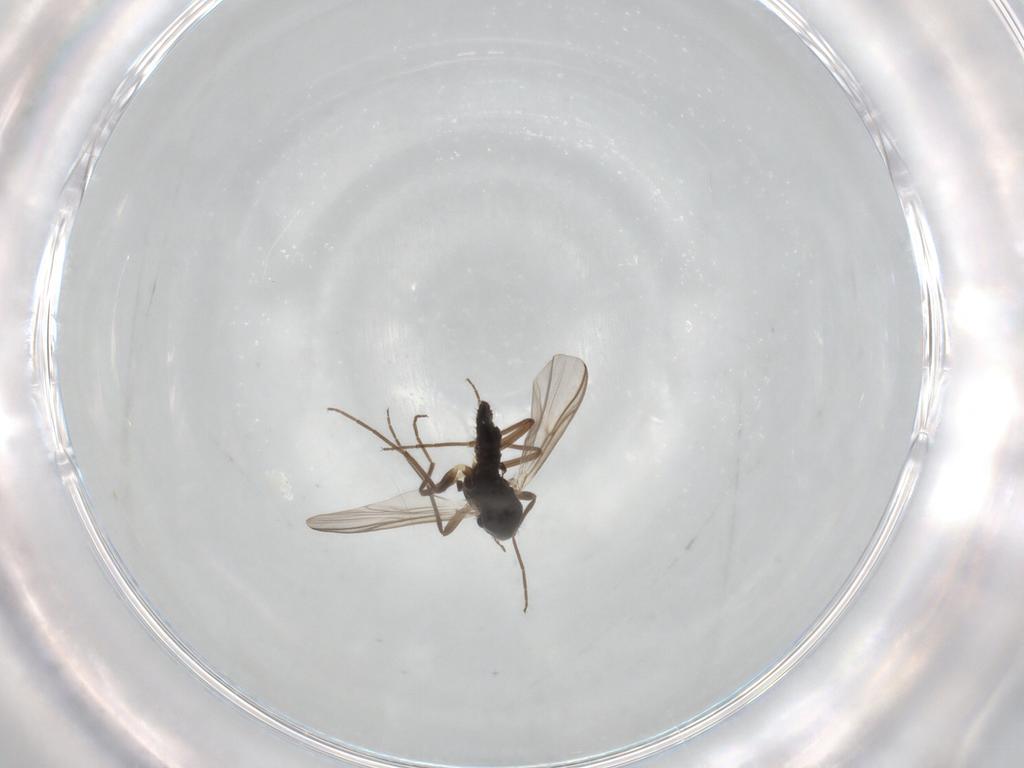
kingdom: Animalia
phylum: Arthropoda
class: Insecta
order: Diptera
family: Chironomidae
